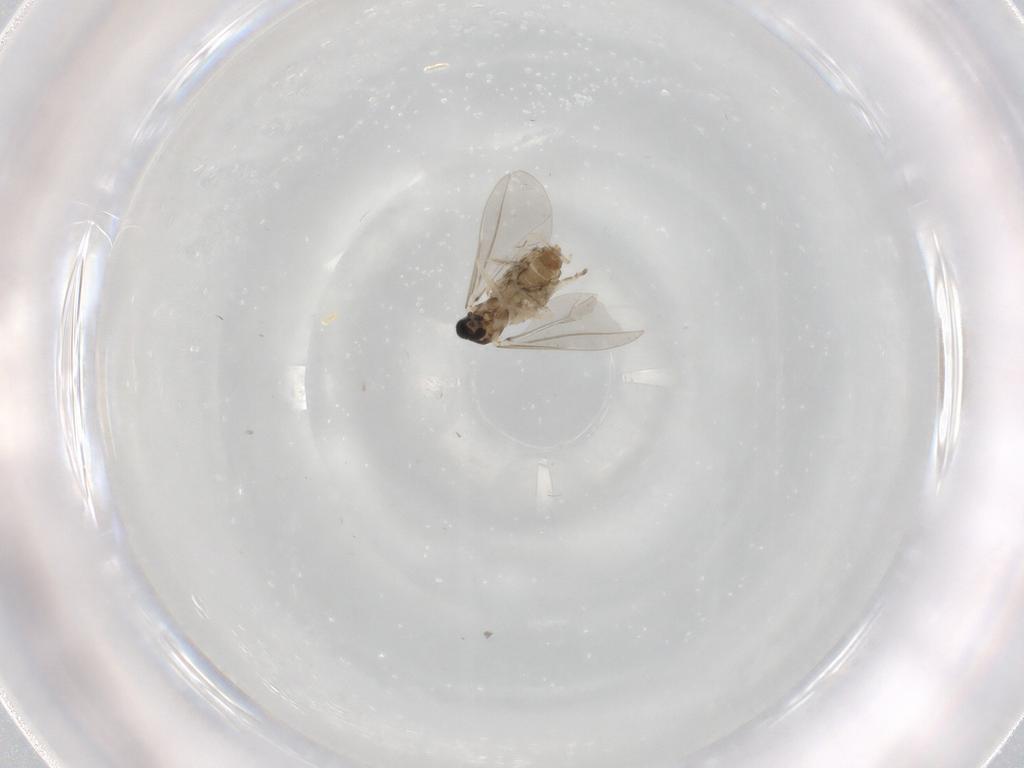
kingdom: Animalia
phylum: Arthropoda
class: Insecta
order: Diptera
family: Cecidomyiidae
